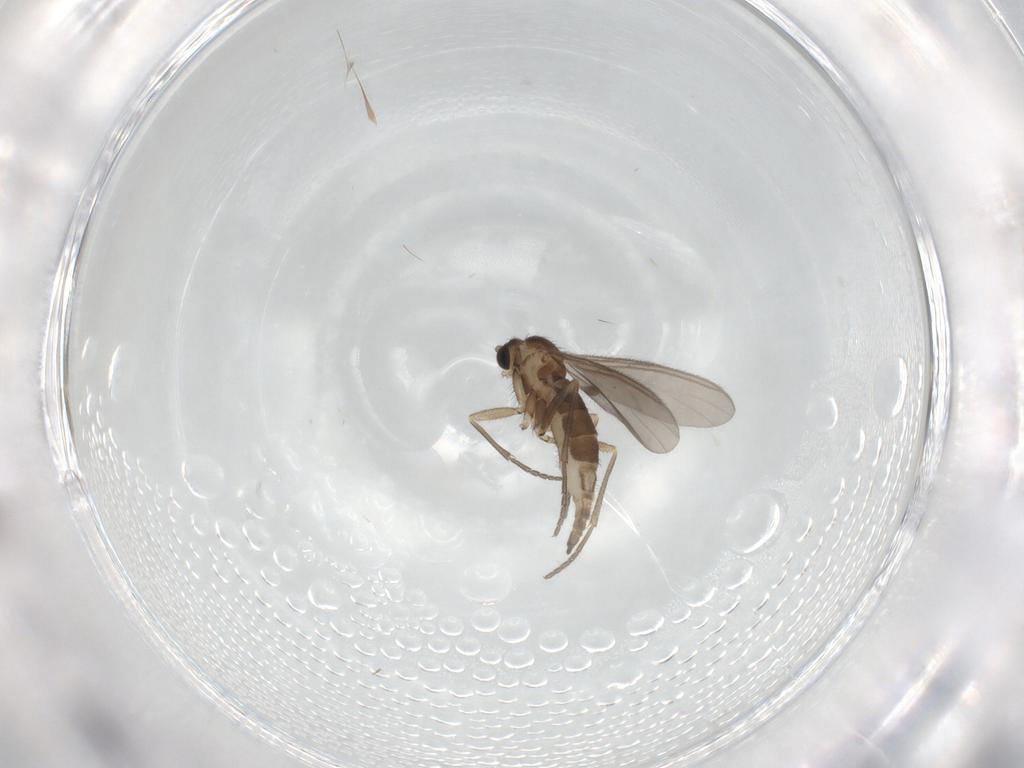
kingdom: Animalia
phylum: Arthropoda
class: Insecta
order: Diptera
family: Sciaridae
